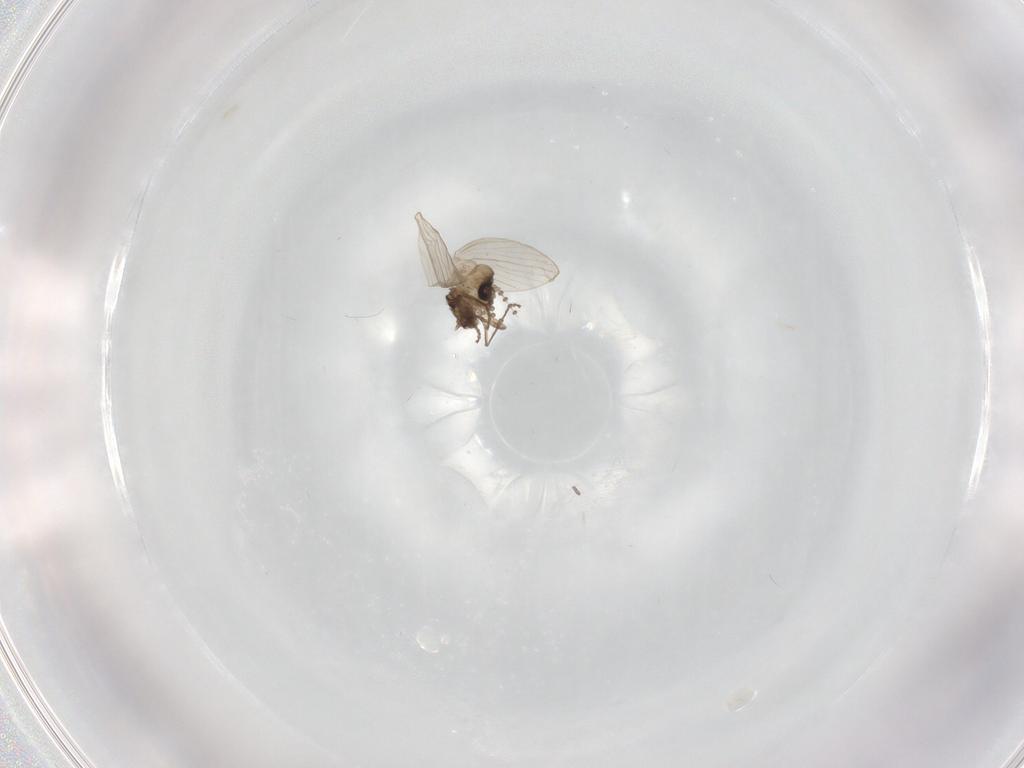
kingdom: Animalia
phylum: Arthropoda
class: Insecta
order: Diptera
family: Psychodidae
